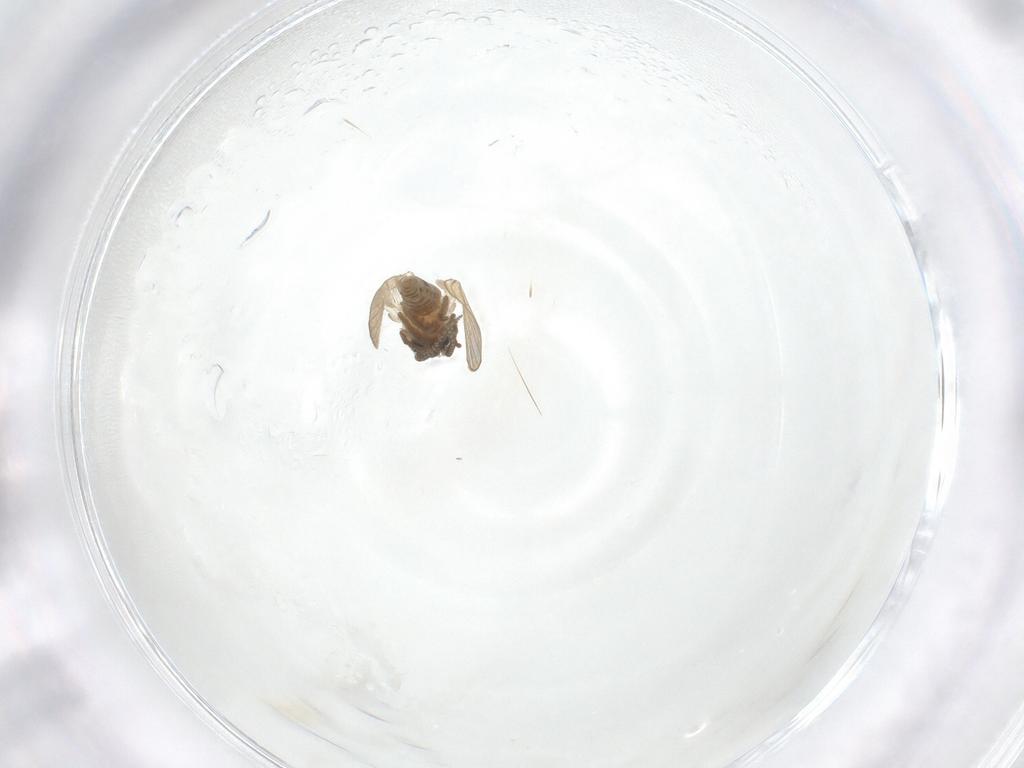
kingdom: Animalia
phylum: Arthropoda
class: Insecta
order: Diptera
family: Psychodidae
